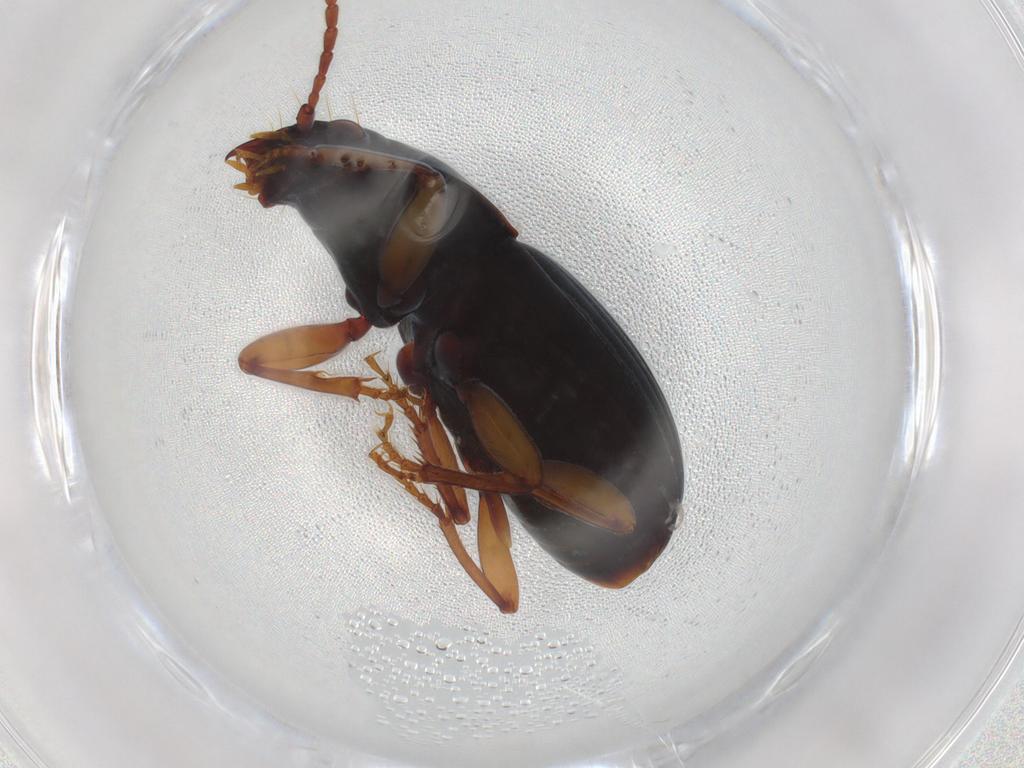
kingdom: Animalia
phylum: Arthropoda
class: Insecta
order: Coleoptera
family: Carabidae
